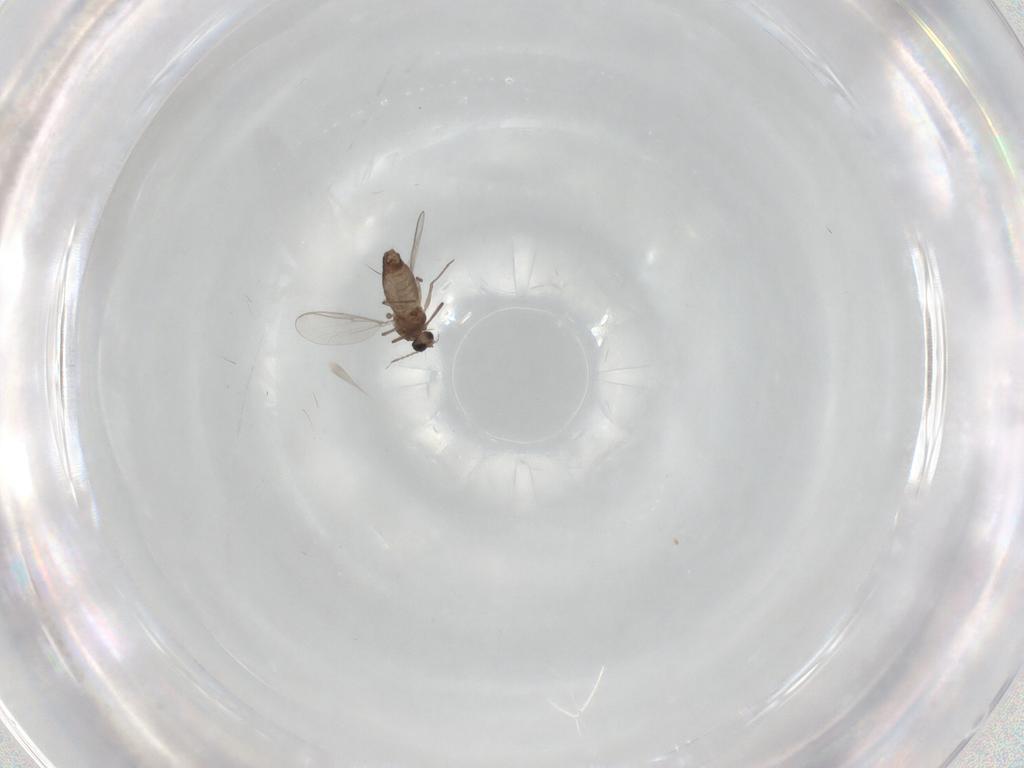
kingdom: Animalia
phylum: Arthropoda
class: Insecta
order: Diptera
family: Chironomidae
